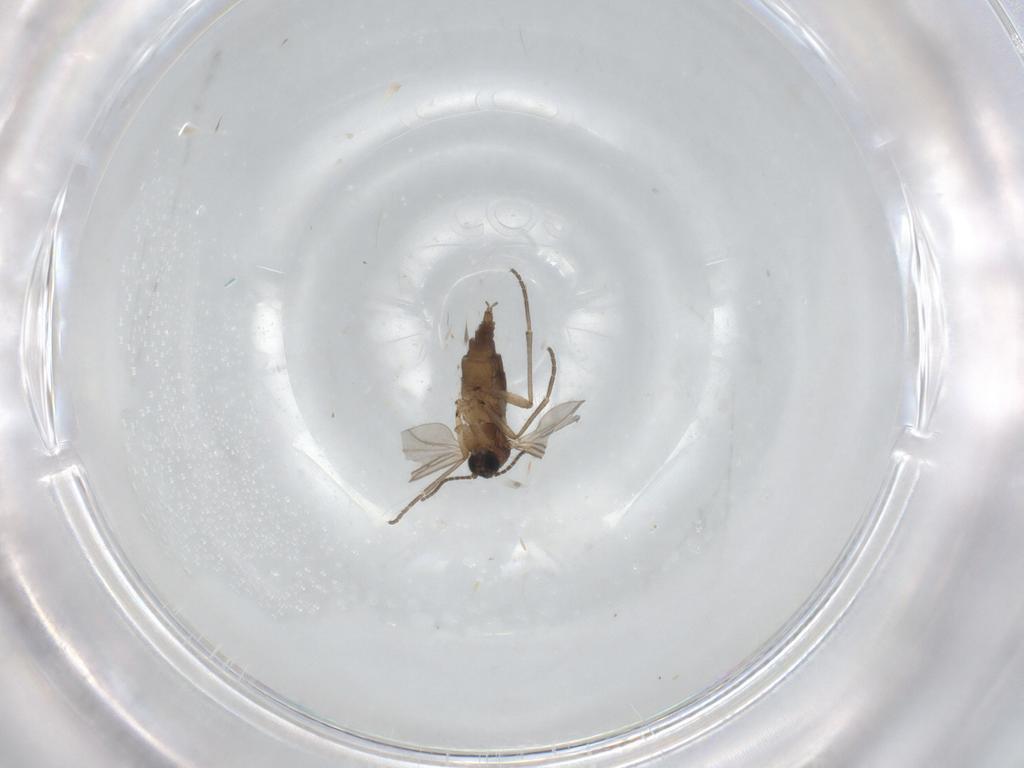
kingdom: Animalia
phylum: Arthropoda
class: Insecta
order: Diptera
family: Sciaridae
